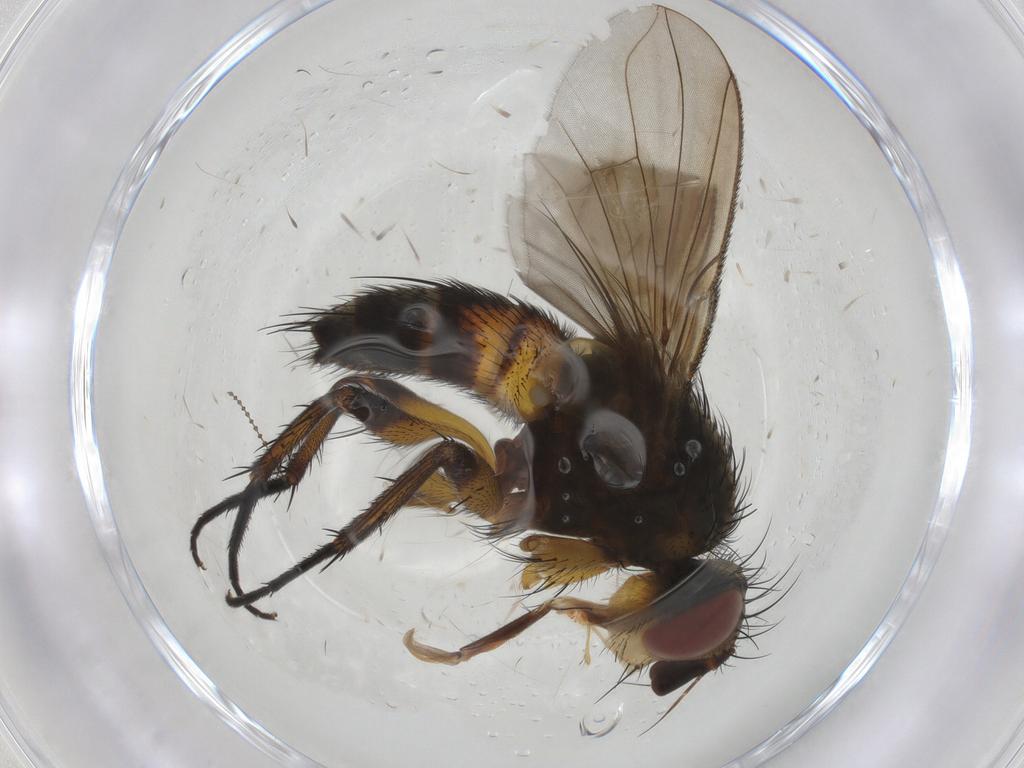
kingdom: Animalia
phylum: Arthropoda
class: Insecta
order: Diptera
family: Tachinidae
